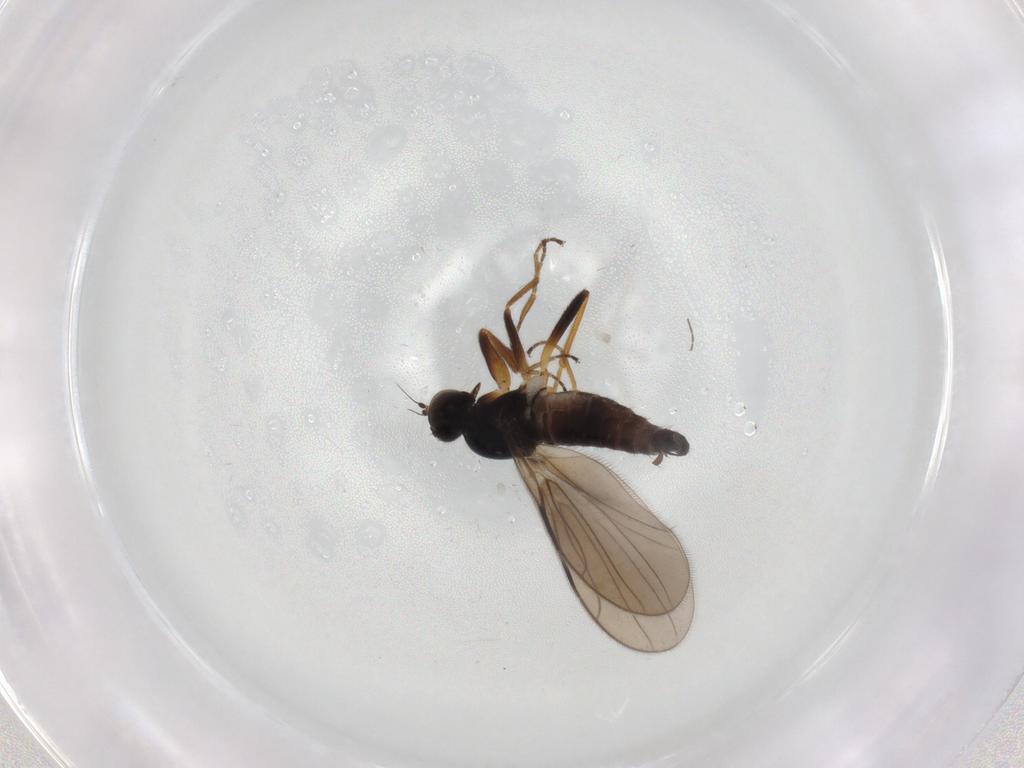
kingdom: Animalia
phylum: Arthropoda
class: Insecta
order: Diptera
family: Hybotidae
